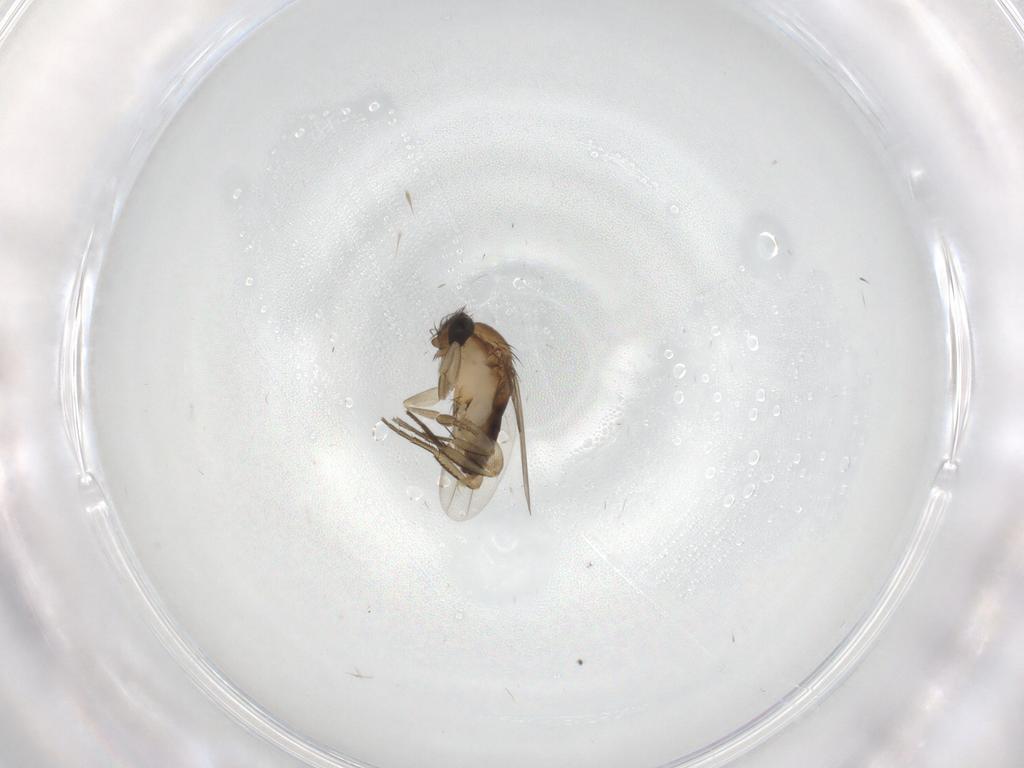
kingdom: Animalia
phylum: Arthropoda
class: Insecta
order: Diptera
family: Phoridae
